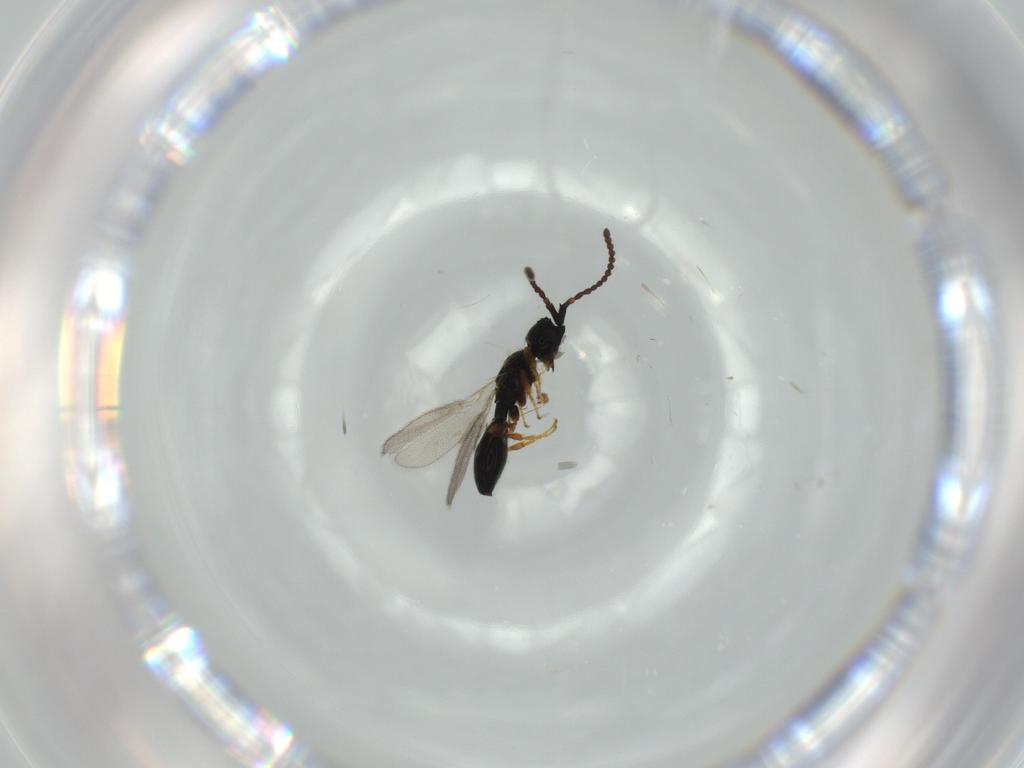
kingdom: Animalia
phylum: Arthropoda
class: Insecta
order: Hymenoptera
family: Diapriidae
